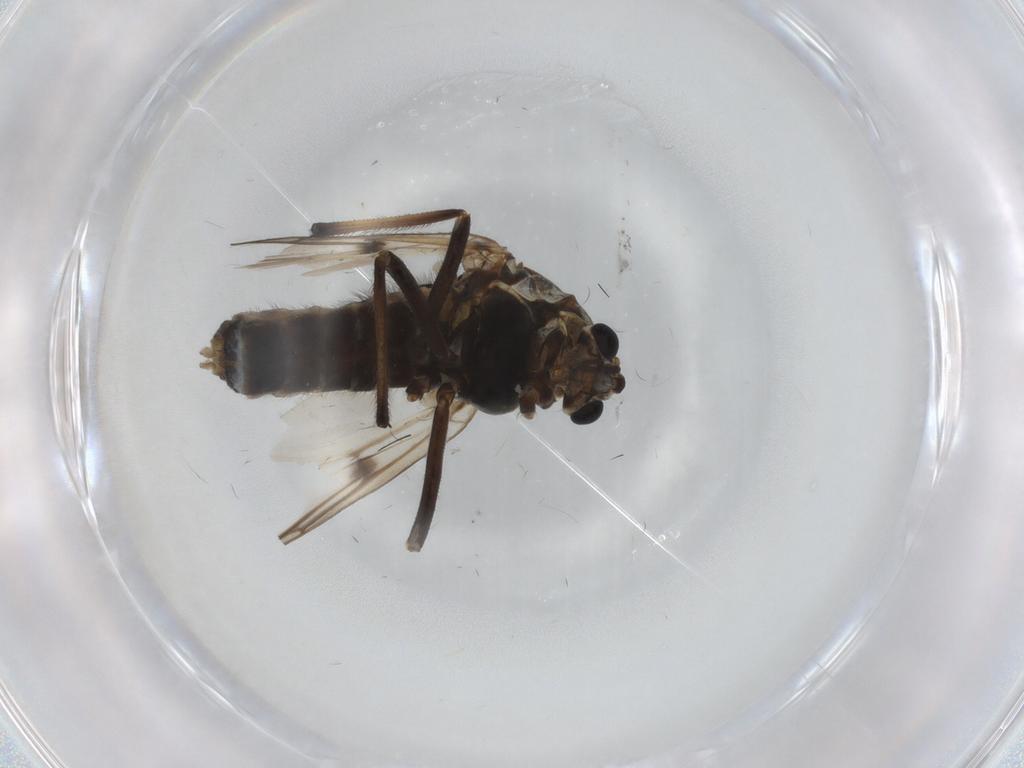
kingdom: Animalia
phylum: Arthropoda
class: Insecta
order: Diptera
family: Chironomidae
